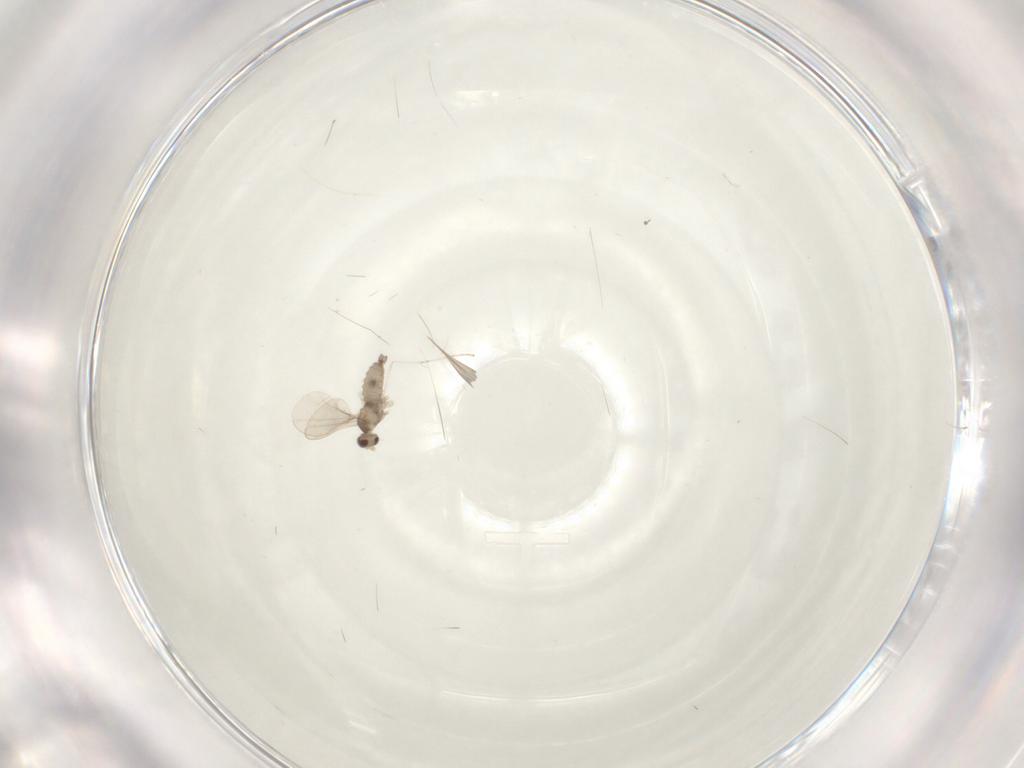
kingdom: Animalia
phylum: Arthropoda
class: Insecta
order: Diptera
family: Cecidomyiidae
